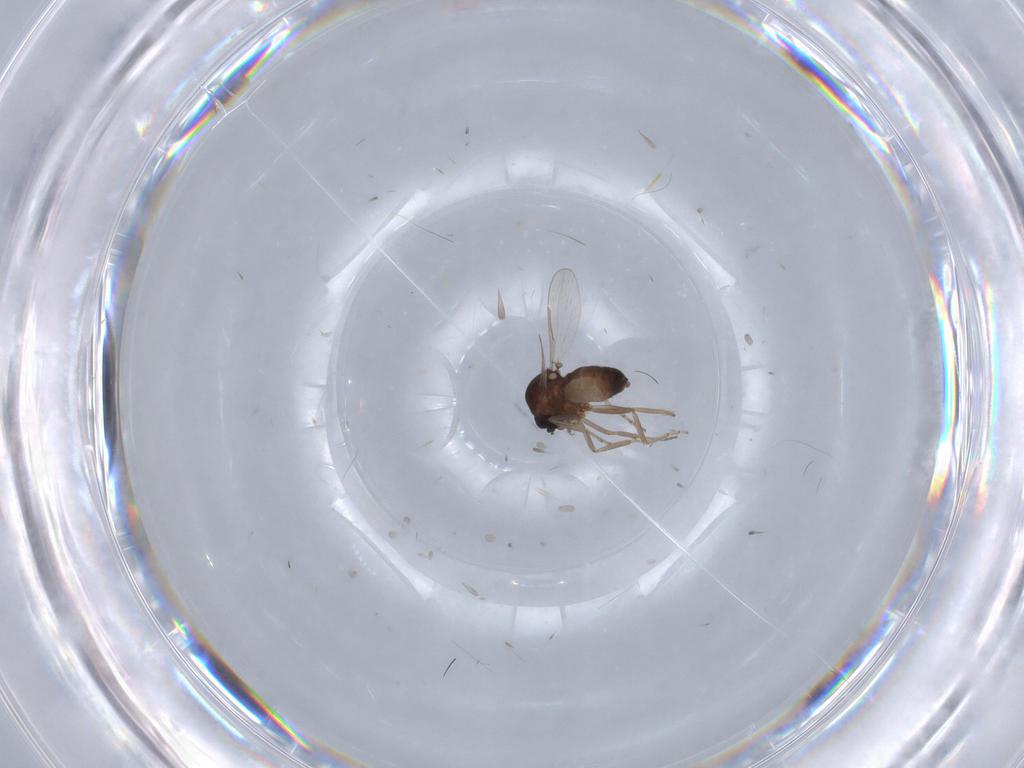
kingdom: Animalia
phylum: Arthropoda
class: Insecta
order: Diptera
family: Ceratopogonidae
